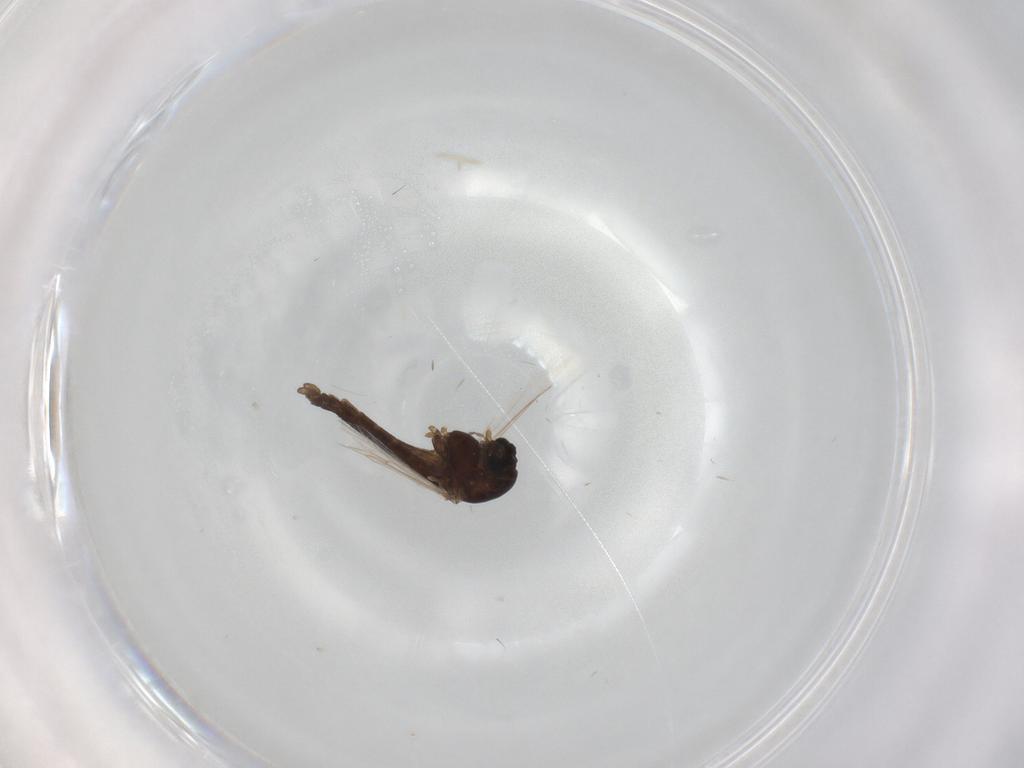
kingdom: Animalia
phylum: Arthropoda
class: Insecta
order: Diptera
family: Chironomidae
